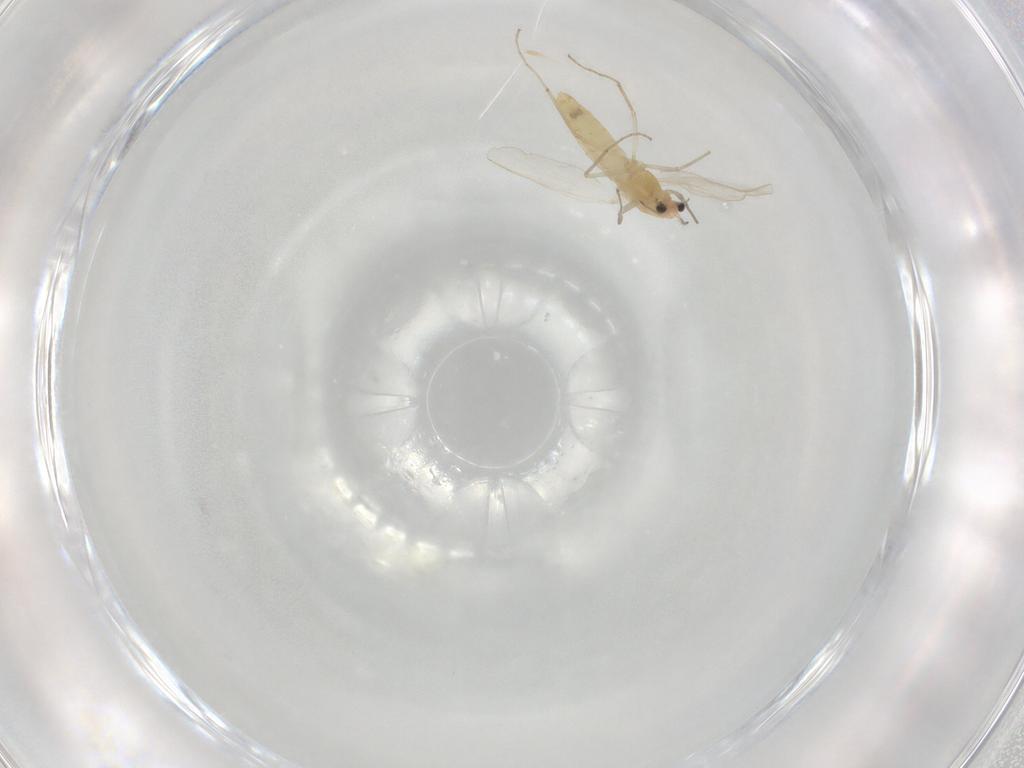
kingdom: Animalia
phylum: Arthropoda
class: Insecta
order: Diptera
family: Chironomidae
